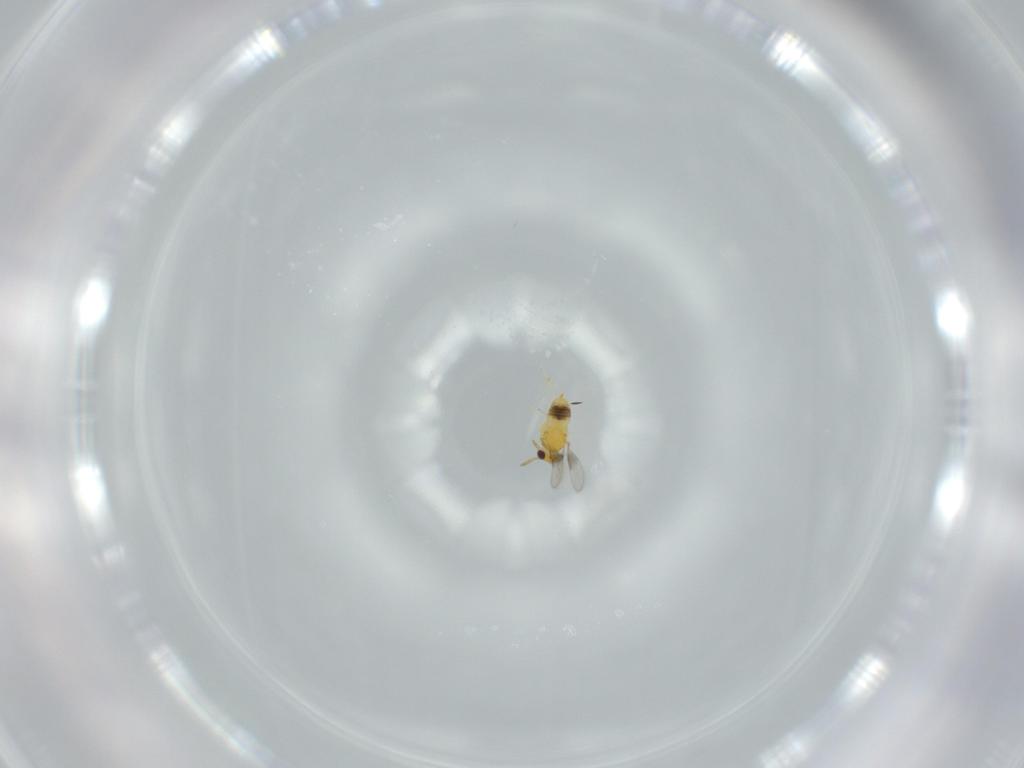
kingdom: Animalia
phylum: Arthropoda
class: Insecta
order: Hymenoptera
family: Aphelinidae
